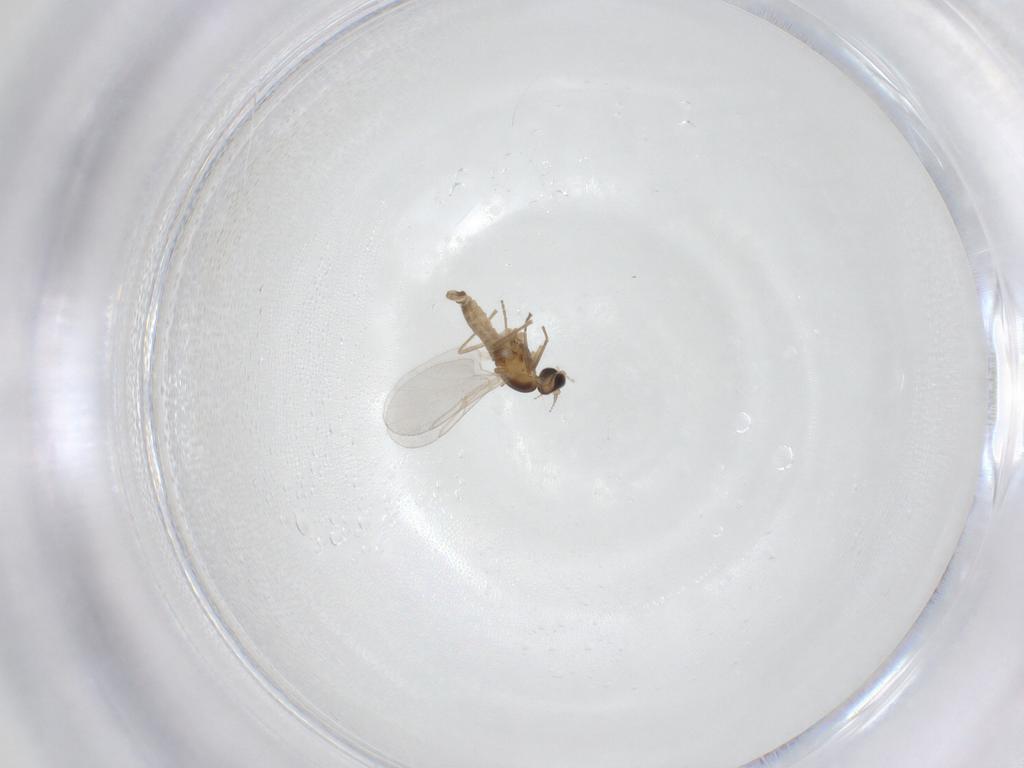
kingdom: Animalia
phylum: Arthropoda
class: Insecta
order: Diptera
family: Cecidomyiidae
